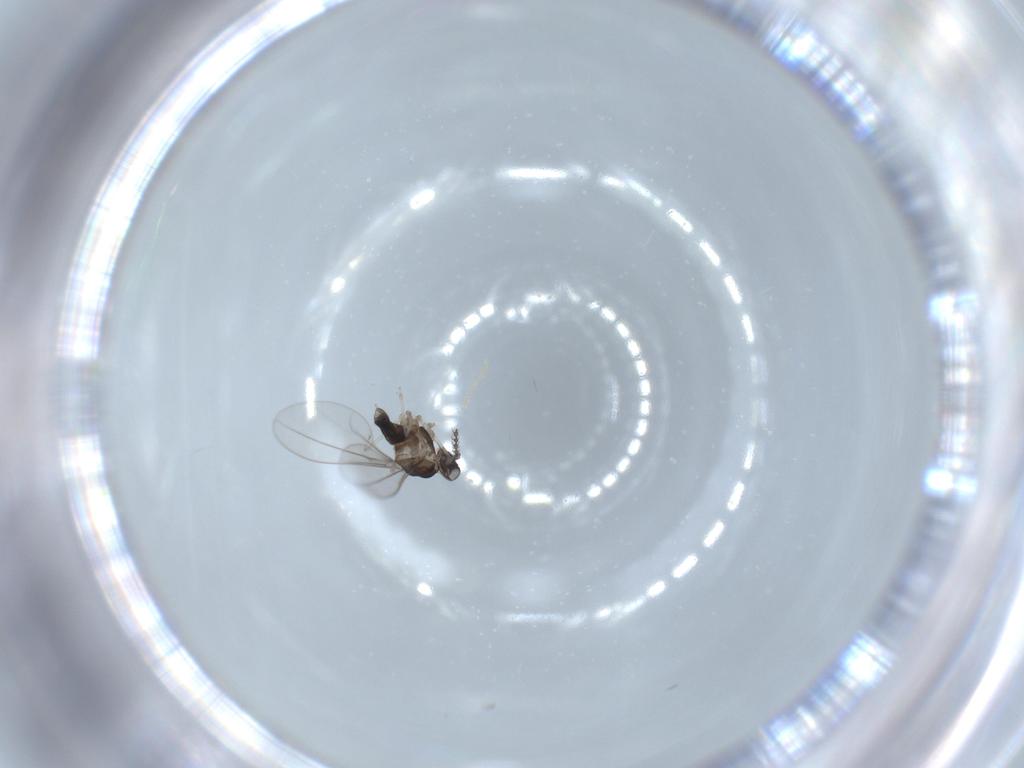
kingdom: Animalia
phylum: Arthropoda
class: Insecta
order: Diptera
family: Cecidomyiidae
